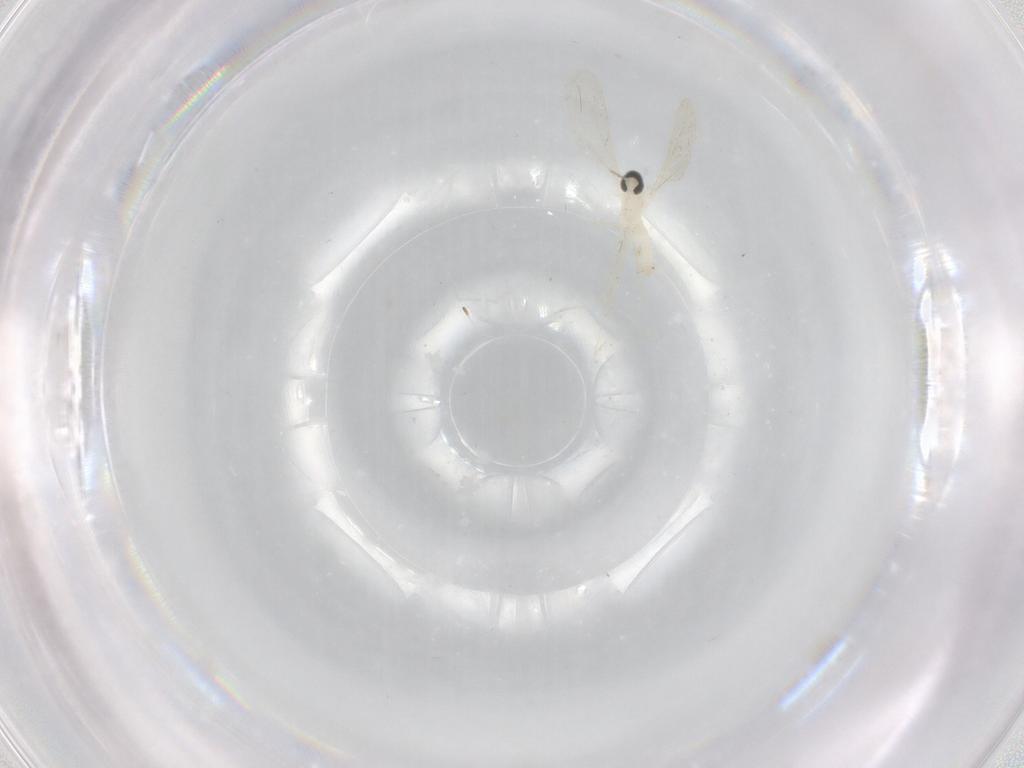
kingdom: Animalia
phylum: Arthropoda
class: Insecta
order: Diptera
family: Cecidomyiidae
